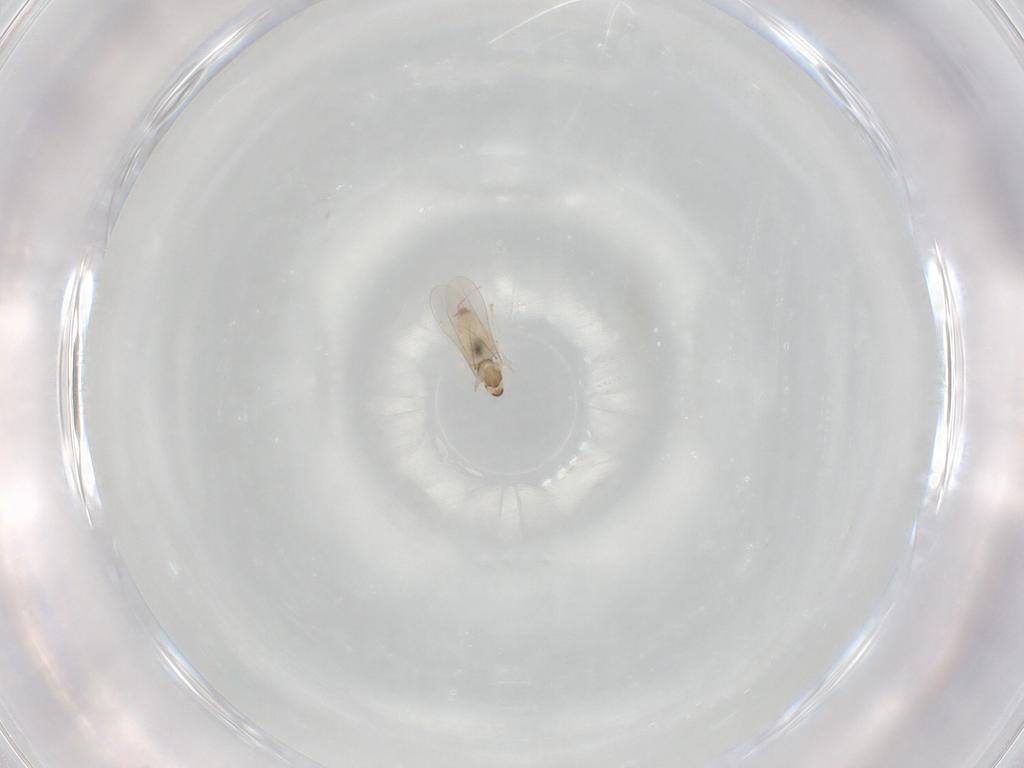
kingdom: Animalia
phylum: Arthropoda
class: Insecta
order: Diptera
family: Cecidomyiidae
